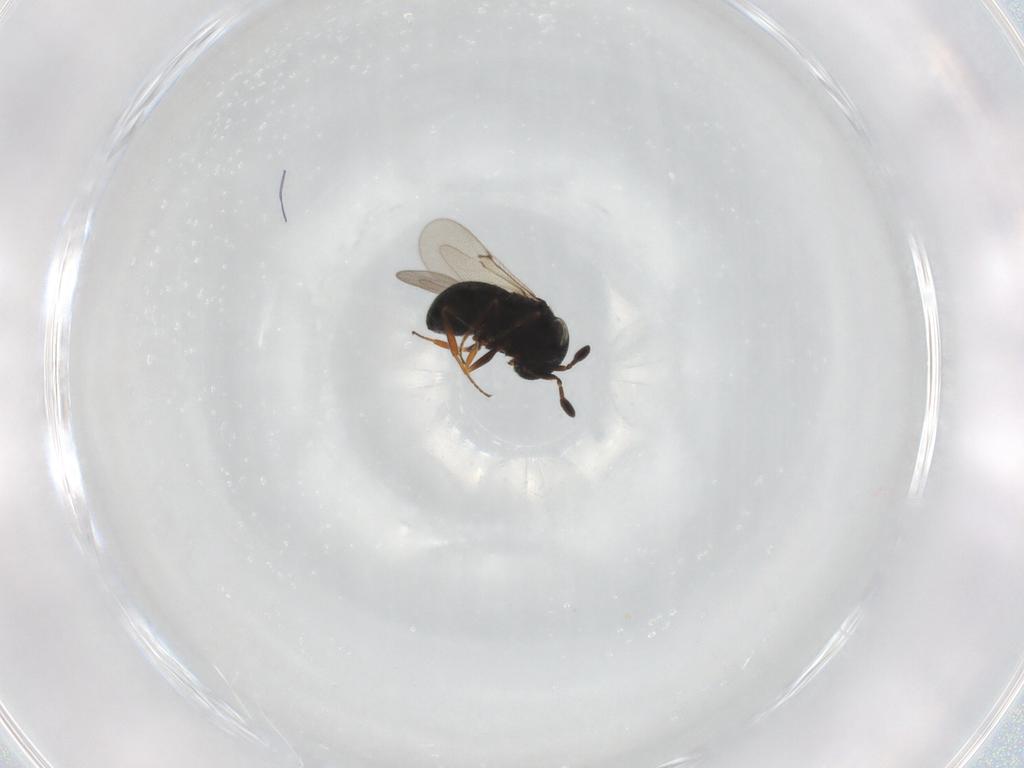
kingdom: Animalia
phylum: Arthropoda
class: Insecta
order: Hymenoptera
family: Scelionidae
